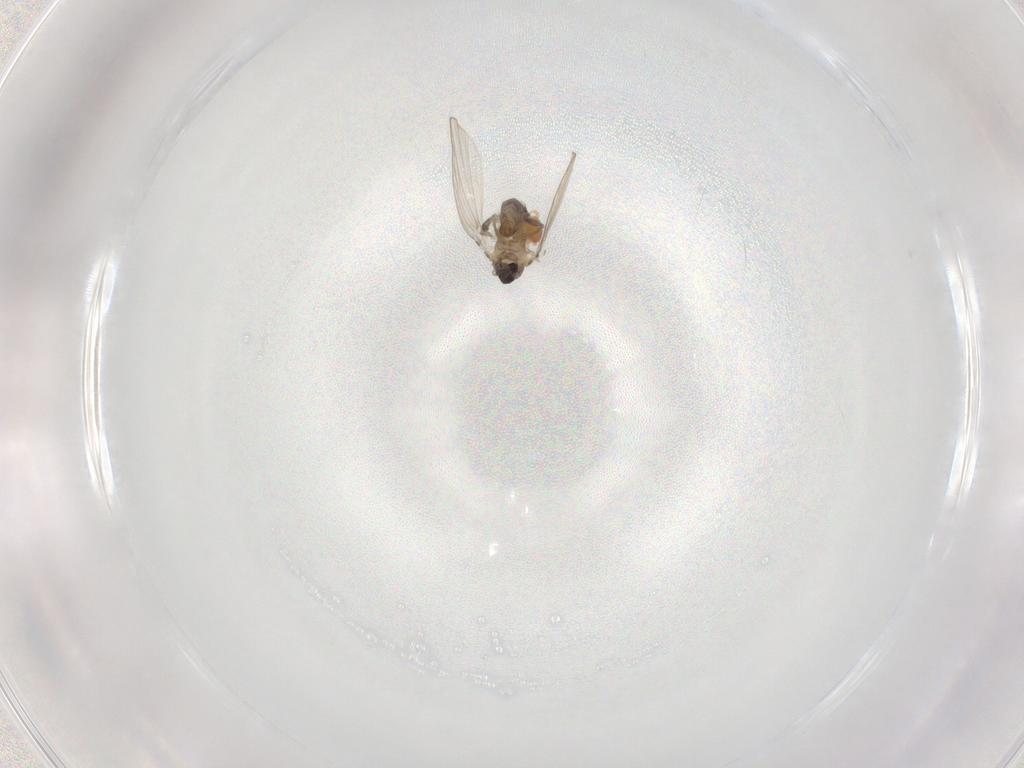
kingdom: Animalia
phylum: Arthropoda
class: Insecta
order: Diptera
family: Psychodidae
